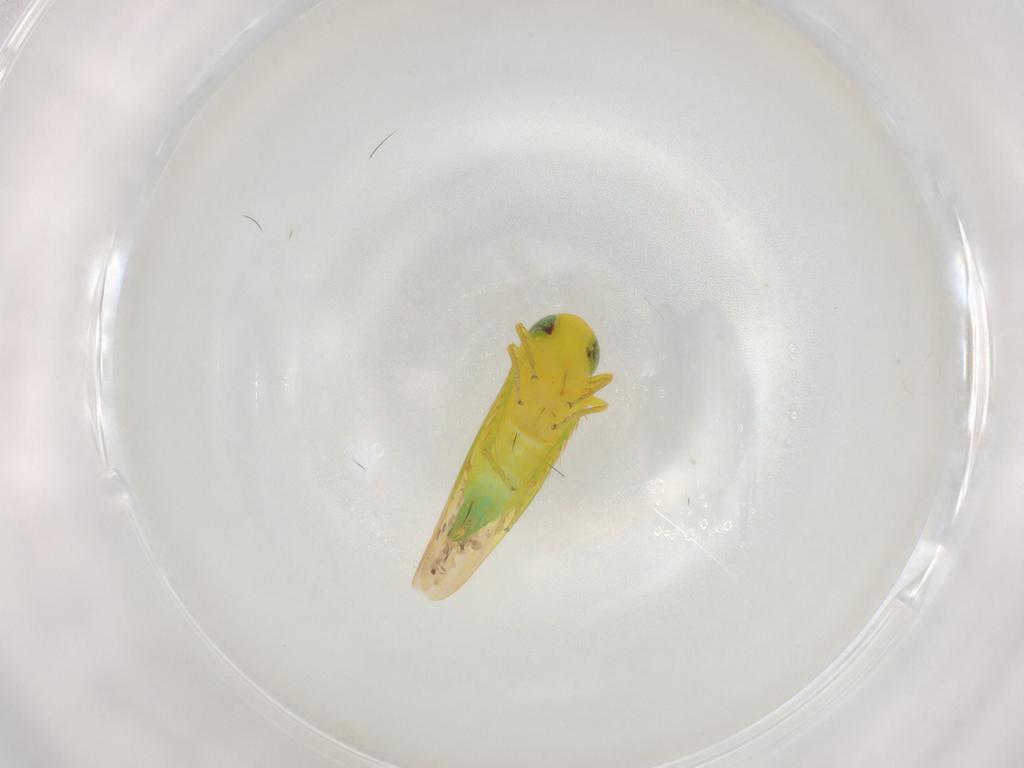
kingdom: Animalia
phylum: Arthropoda
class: Insecta
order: Hemiptera
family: Cicadellidae
